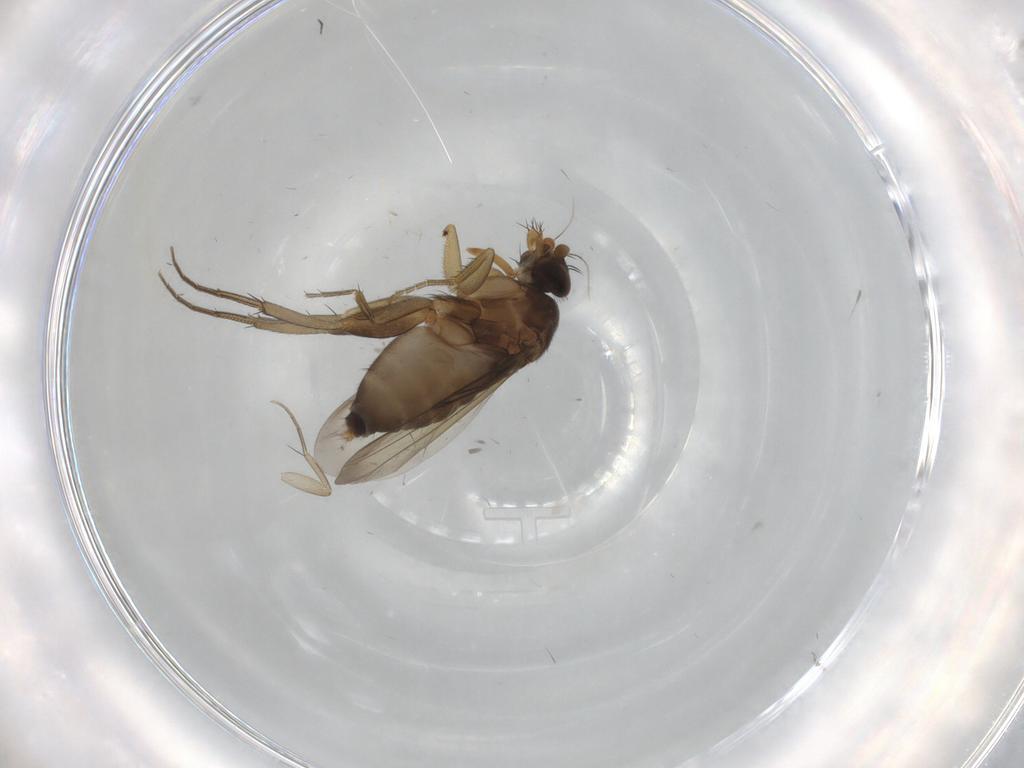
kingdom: Animalia
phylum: Arthropoda
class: Insecta
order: Diptera
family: Phoridae
